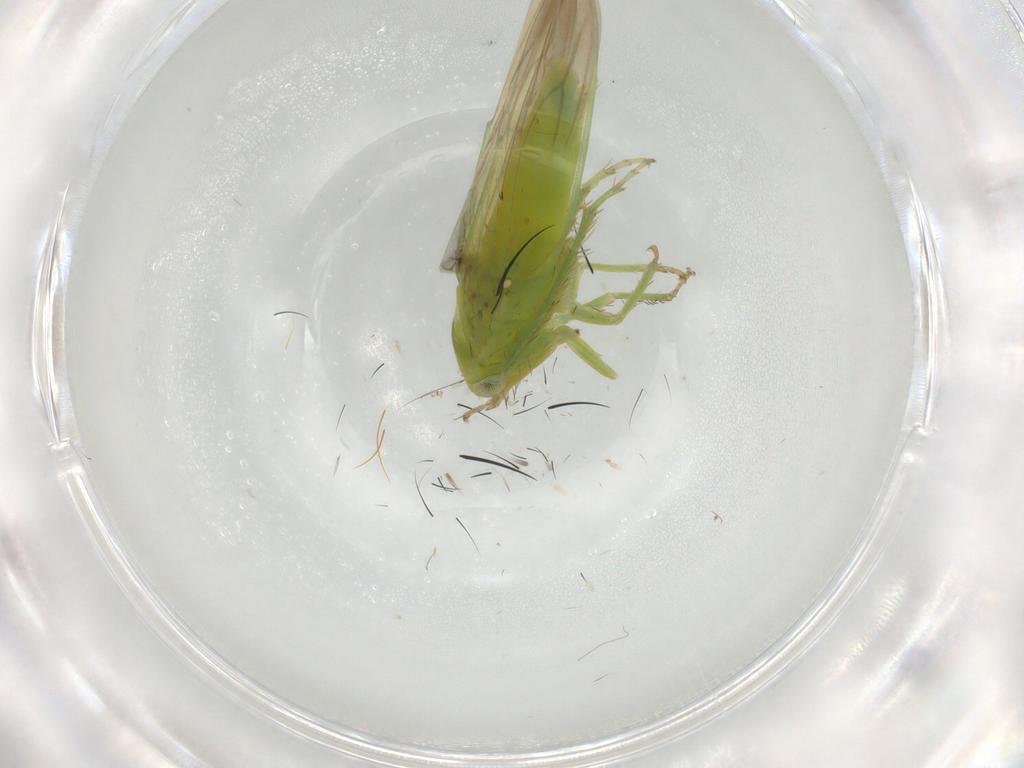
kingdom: Animalia
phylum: Arthropoda
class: Insecta
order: Hemiptera
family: Cicadellidae
